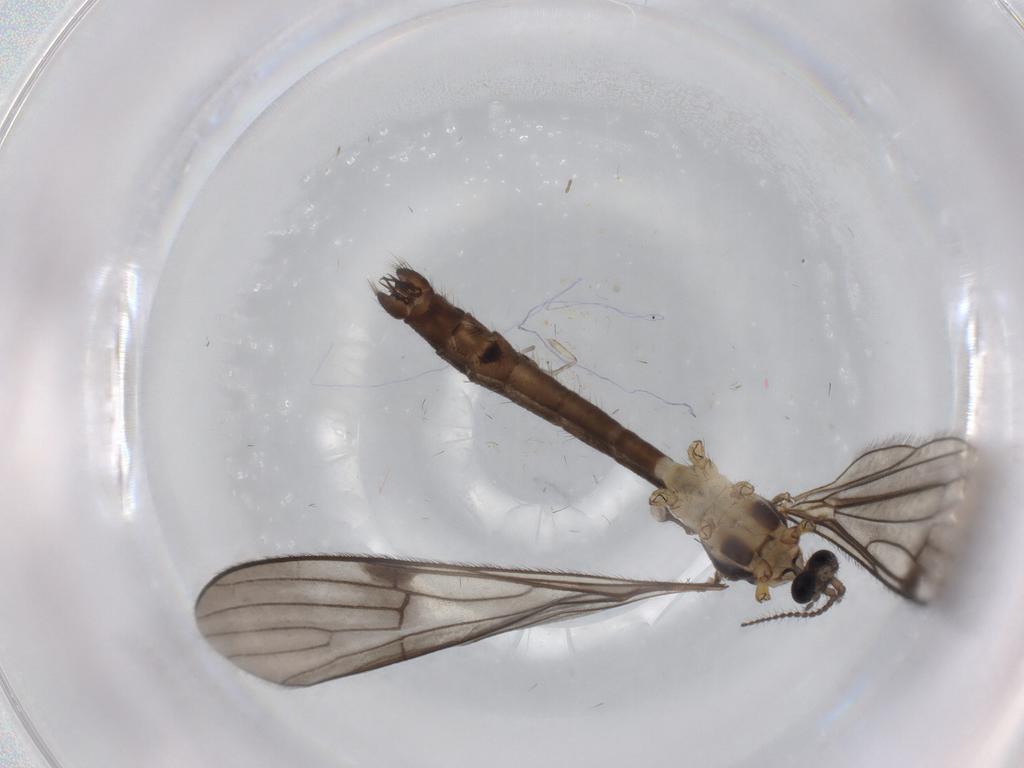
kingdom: Animalia
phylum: Arthropoda
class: Insecta
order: Diptera
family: Limoniidae
